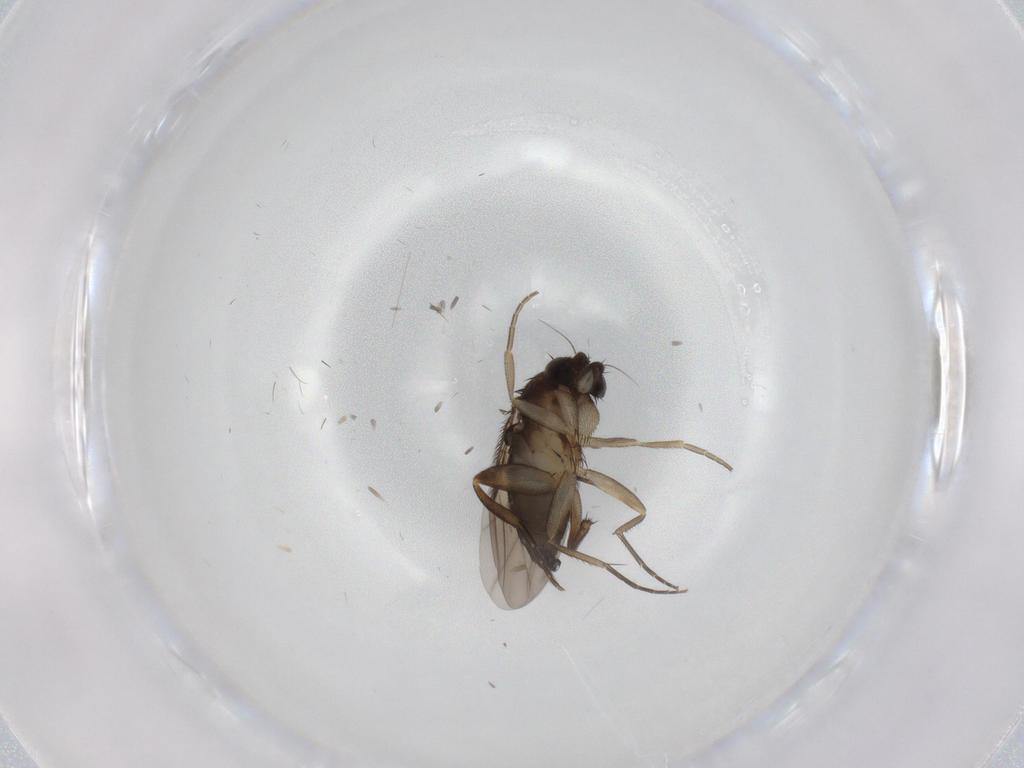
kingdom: Animalia
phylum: Arthropoda
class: Insecta
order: Diptera
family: Phoridae
